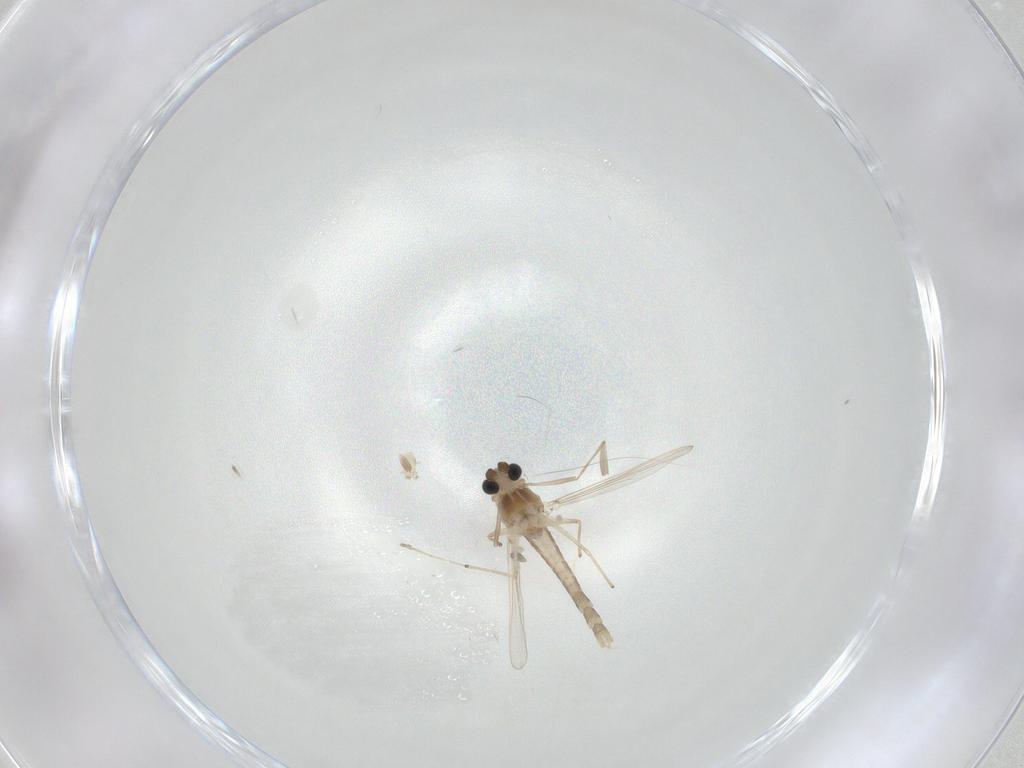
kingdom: Animalia
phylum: Arthropoda
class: Insecta
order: Diptera
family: Chironomidae
